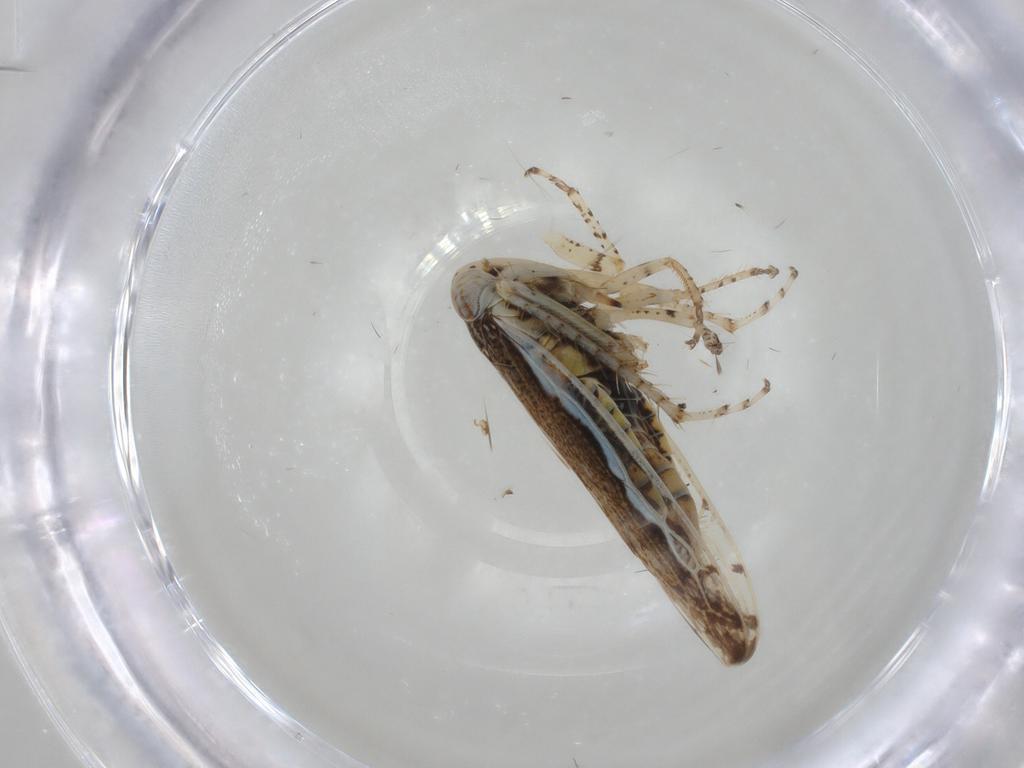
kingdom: Animalia
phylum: Arthropoda
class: Insecta
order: Hemiptera
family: Cicadellidae
